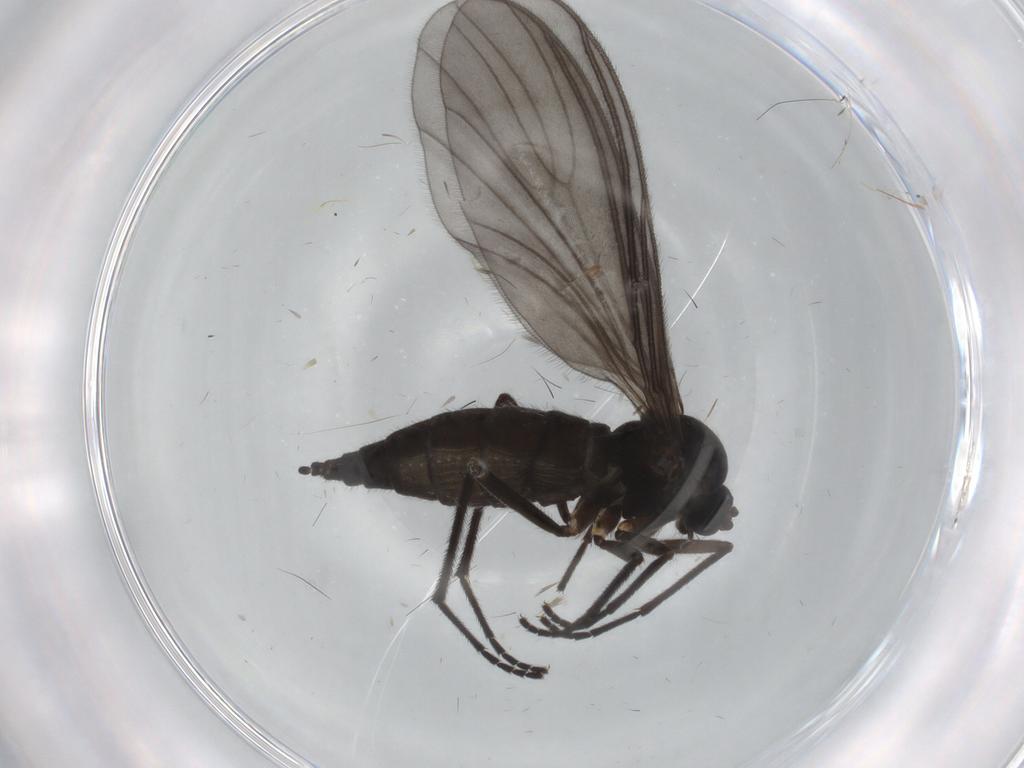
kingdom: Animalia
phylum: Arthropoda
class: Insecta
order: Diptera
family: Sciaridae
